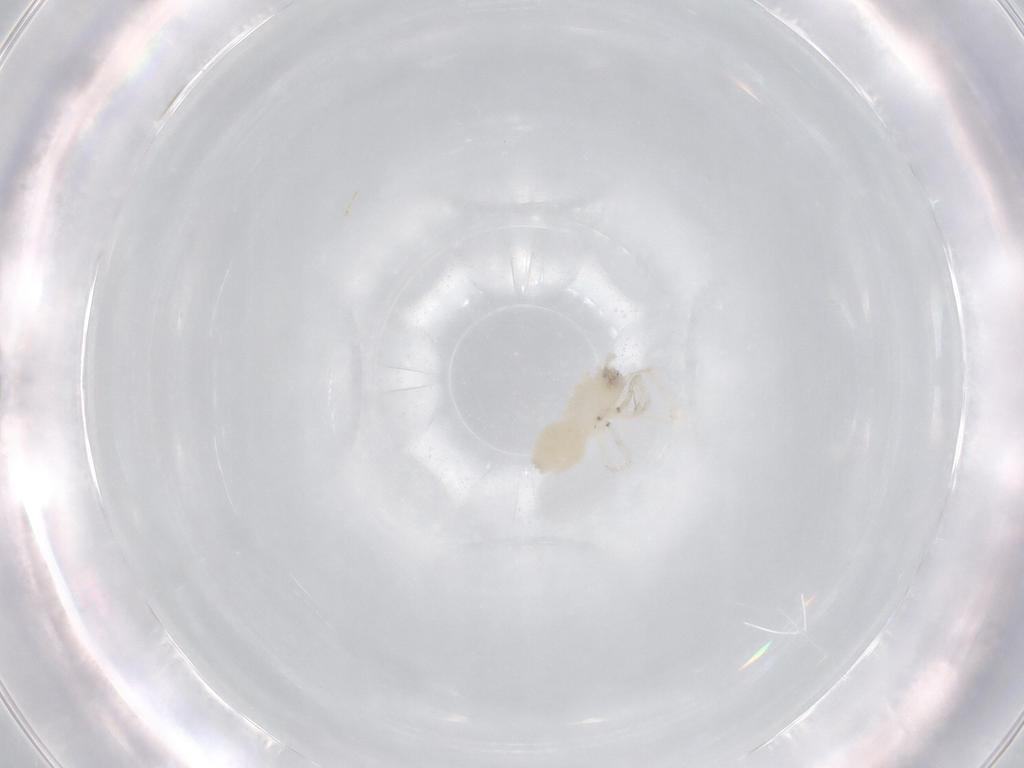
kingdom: Animalia
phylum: Arthropoda
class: Arachnida
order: Araneae
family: Anyphaenidae
